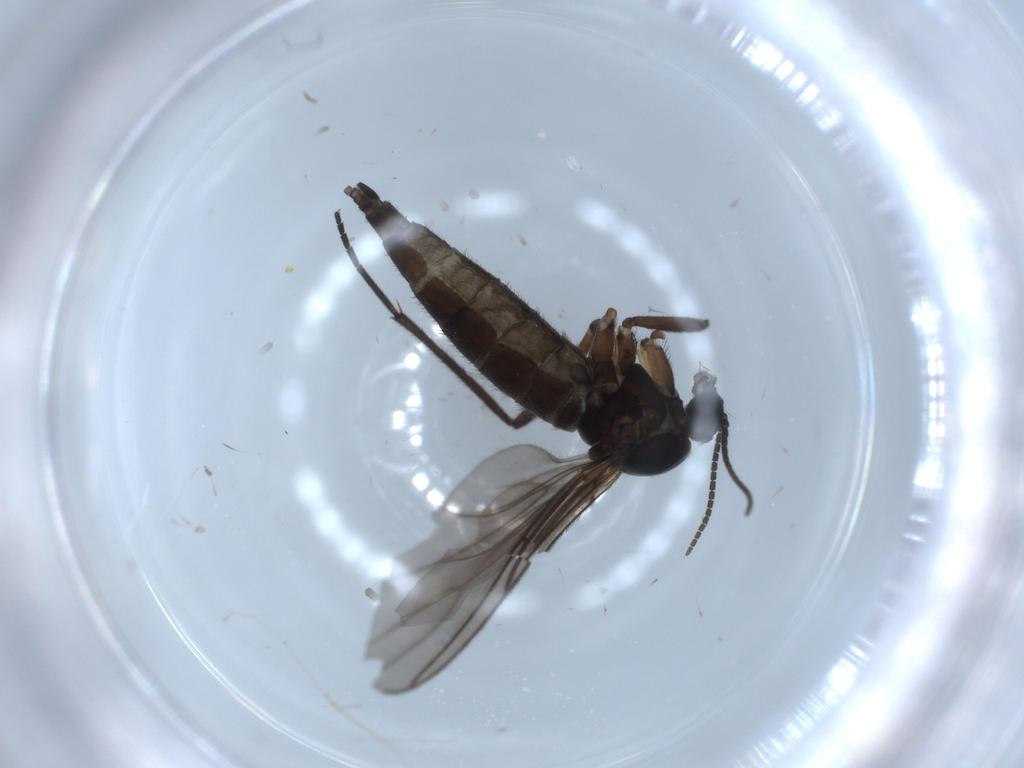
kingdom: Animalia
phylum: Arthropoda
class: Insecta
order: Diptera
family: Sciaridae
